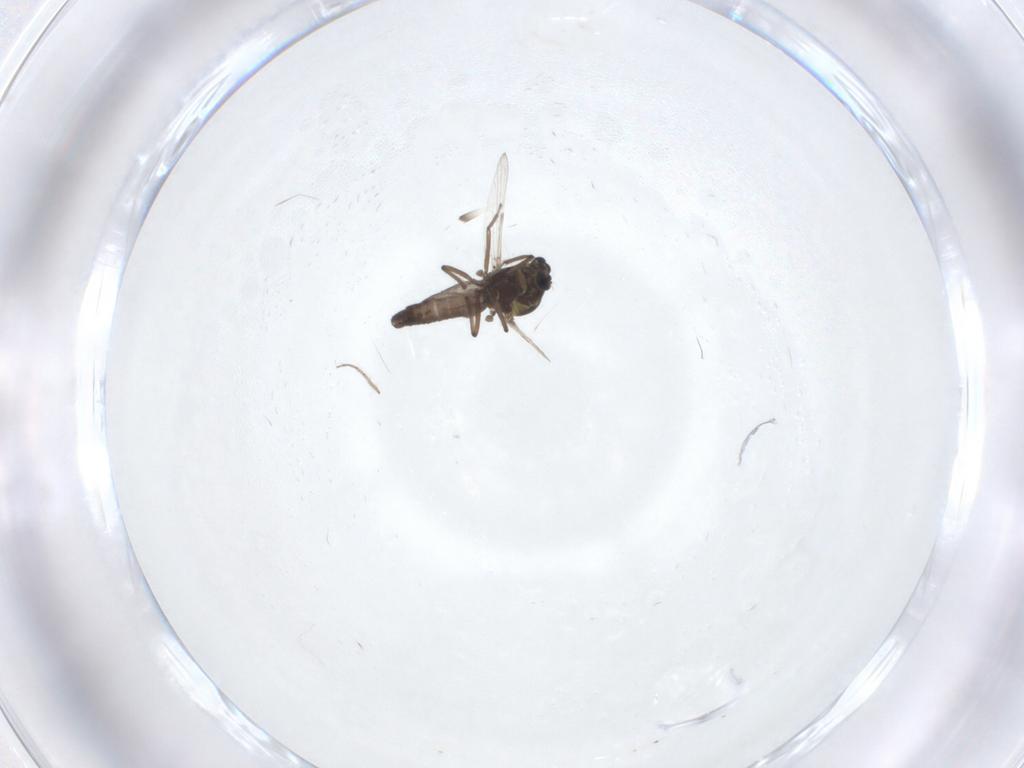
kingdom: Animalia
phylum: Arthropoda
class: Insecta
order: Diptera
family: Ceratopogonidae
